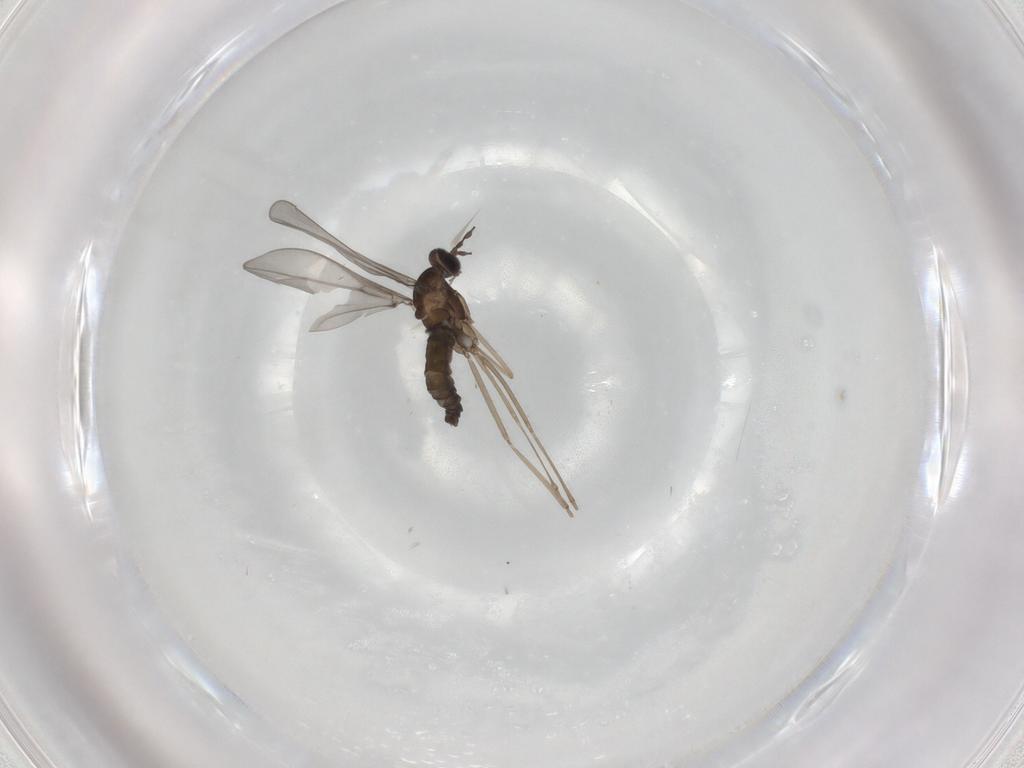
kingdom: Animalia
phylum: Arthropoda
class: Insecta
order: Diptera
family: Cecidomyiidae
